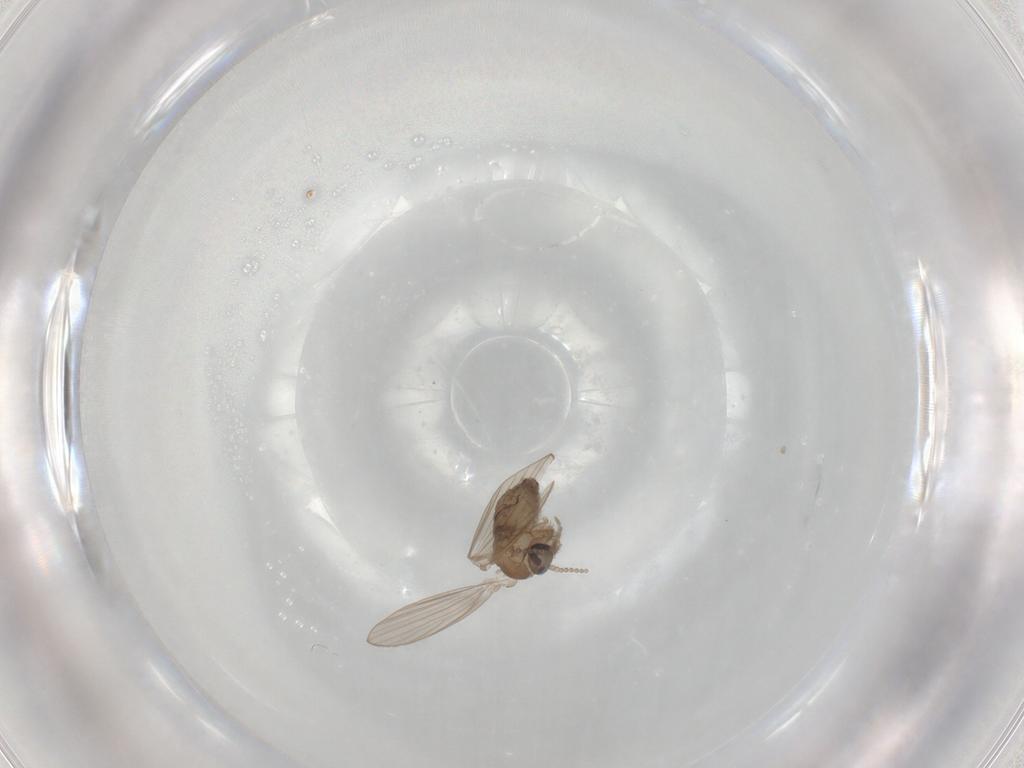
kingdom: Animalia
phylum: Arthropoda
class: Insecta
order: Diptera
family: Psychodidae
